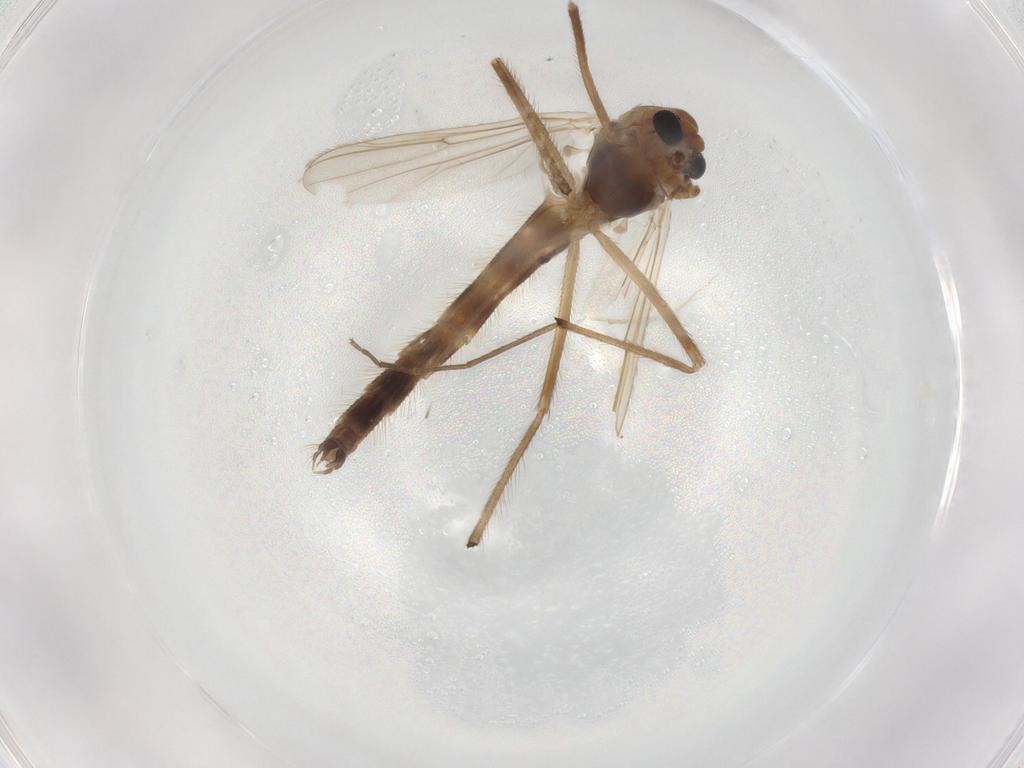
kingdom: Animalia
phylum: Arthropoda
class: Insecta
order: Diptera
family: Chironomidae
